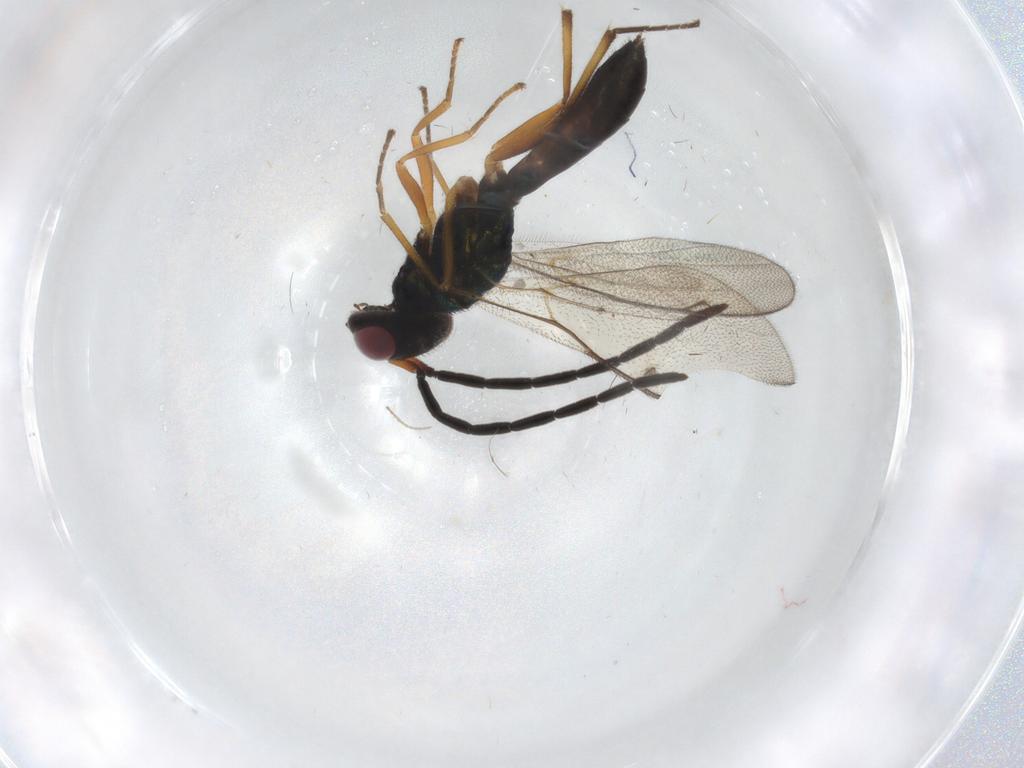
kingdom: Animalia
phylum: Arthropoda
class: Insecta
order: Hymenoptera
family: Pteromalidae
